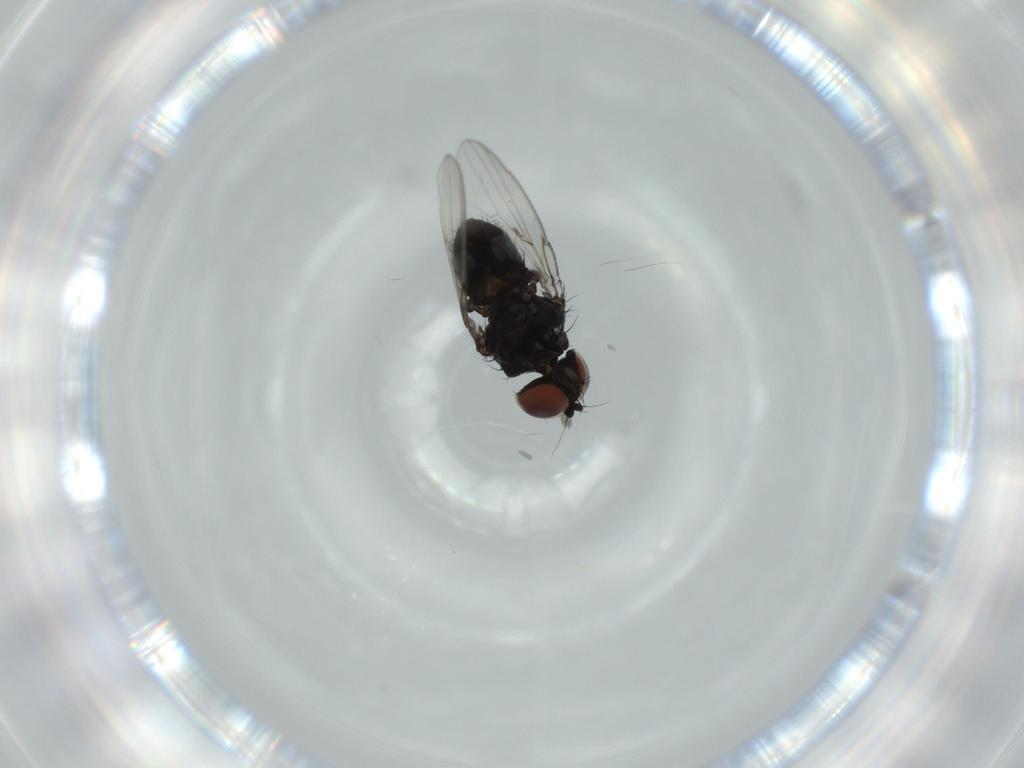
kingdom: Animalia
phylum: Arthropoda
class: Insecta
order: Diptera
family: Milichiidae
